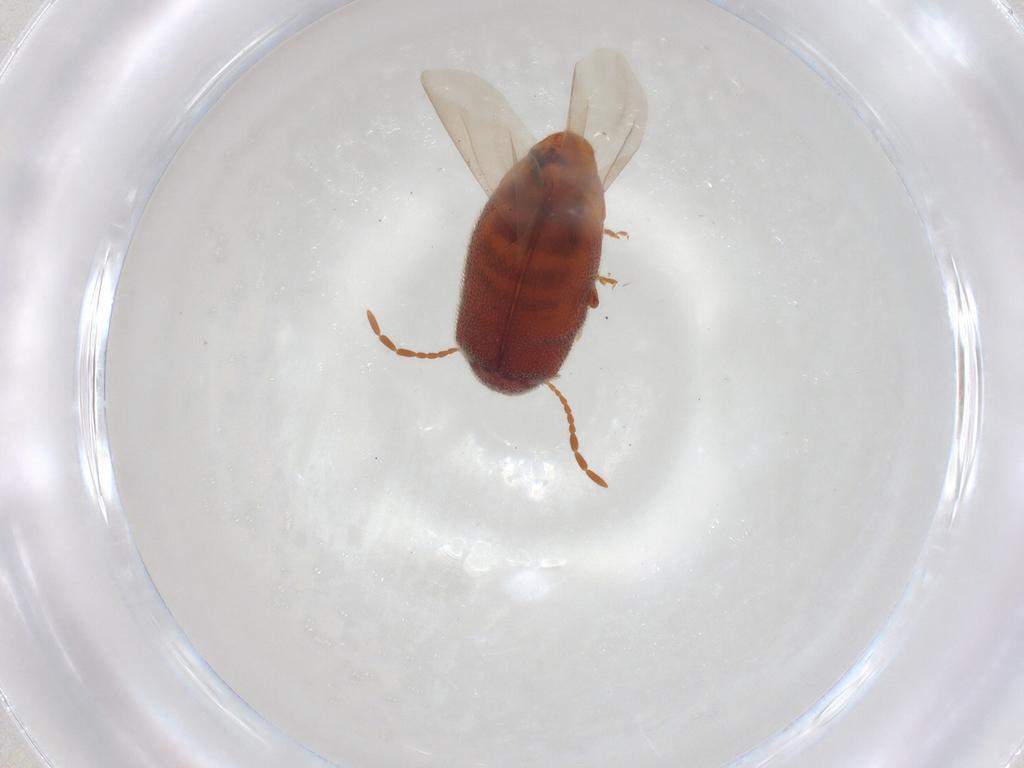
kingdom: Animalia
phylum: Arthropoda
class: Insecta
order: Coleoptera
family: Ptinidae
